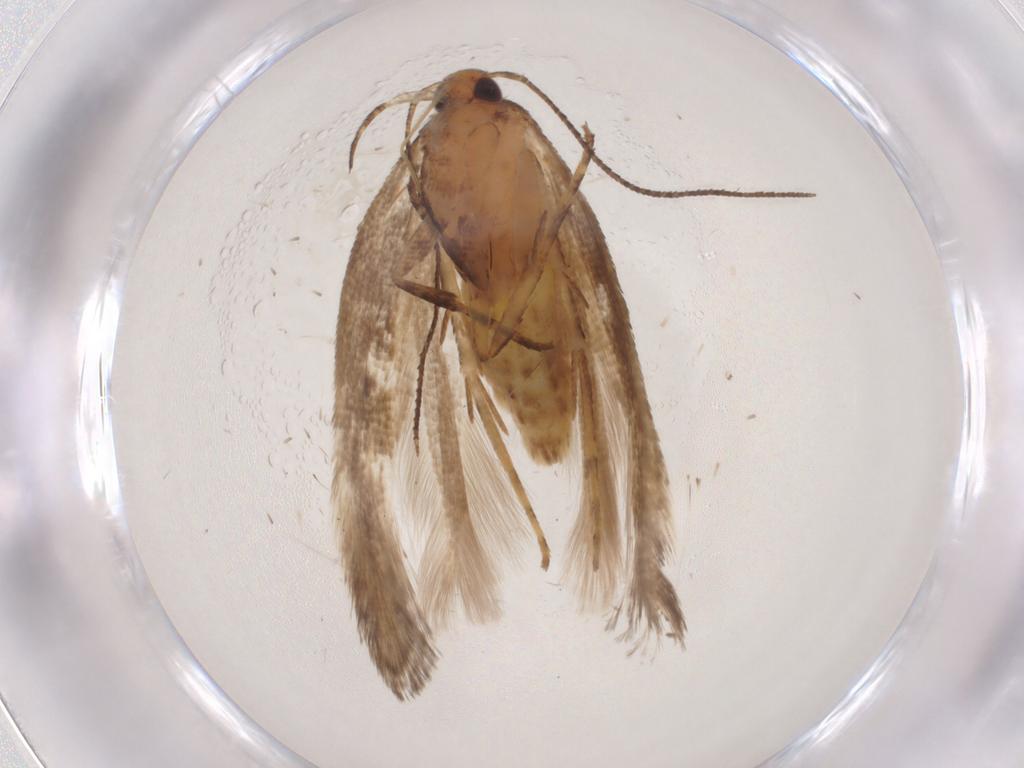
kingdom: Animalia
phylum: Arthropoda
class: Insecta
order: Lepidoptera
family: Gelechiidae
